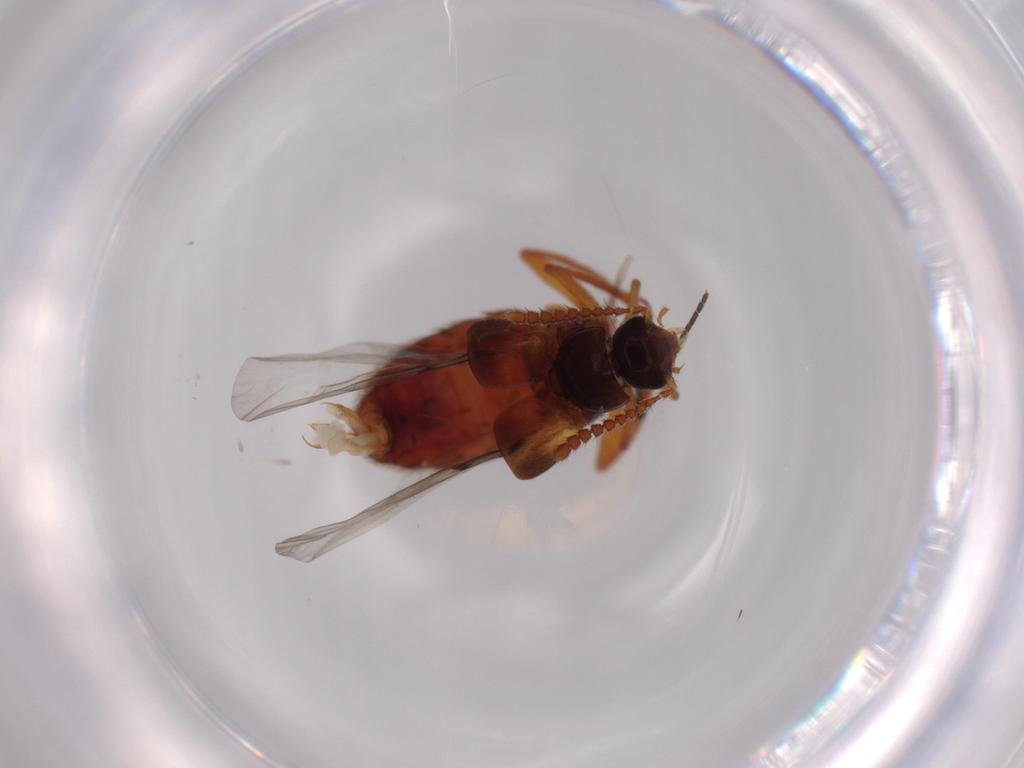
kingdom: Animalia
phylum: Arthropoda
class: Insecta
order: Coleoptera
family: Staphylinidae
